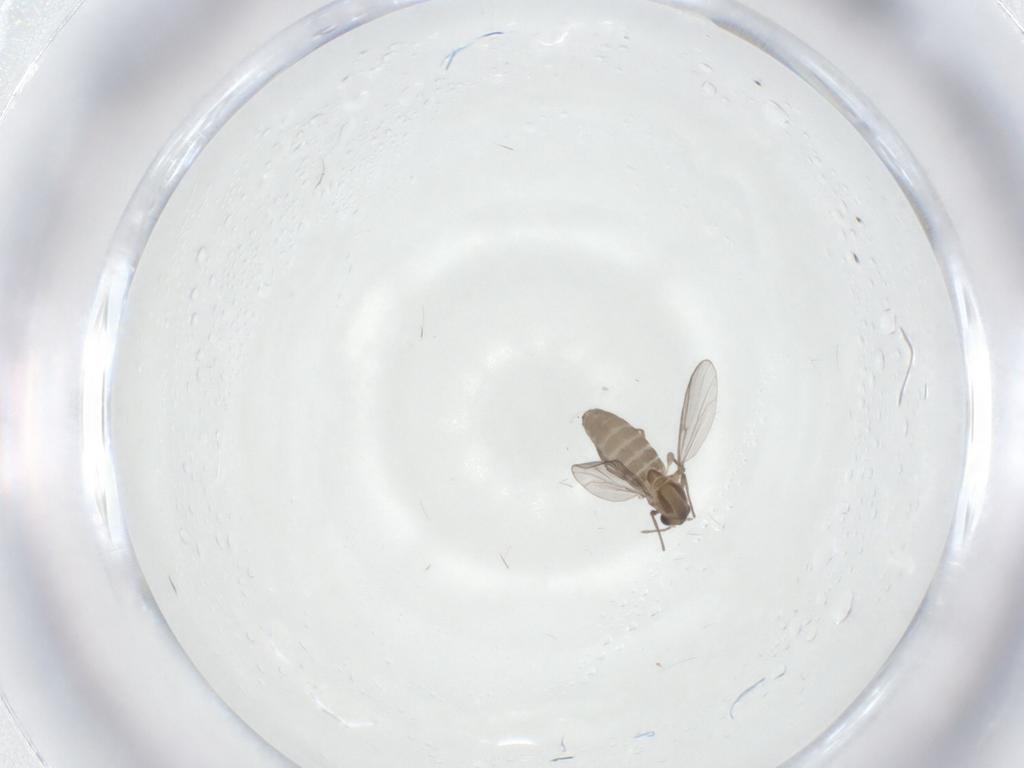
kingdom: Animalia
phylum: Arthropoda
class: Insecta
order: Diptera
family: Chironomidae
